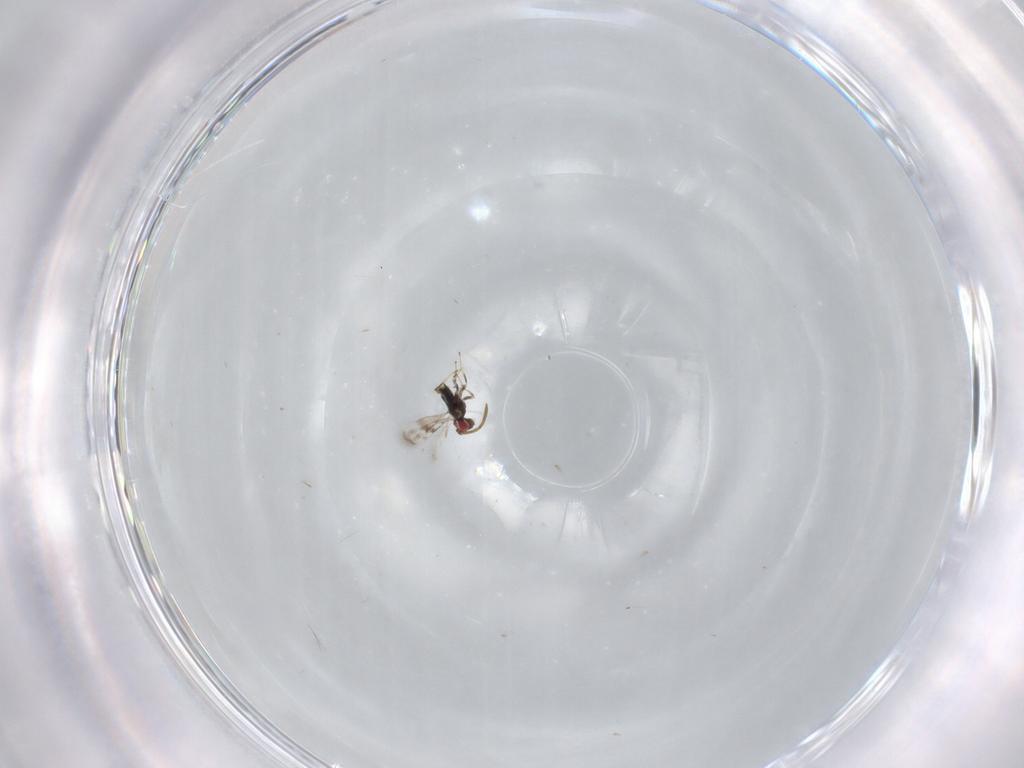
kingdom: Animalia
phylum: Arthropoda
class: Insecta
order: Hymenoptera
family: Azotidae
